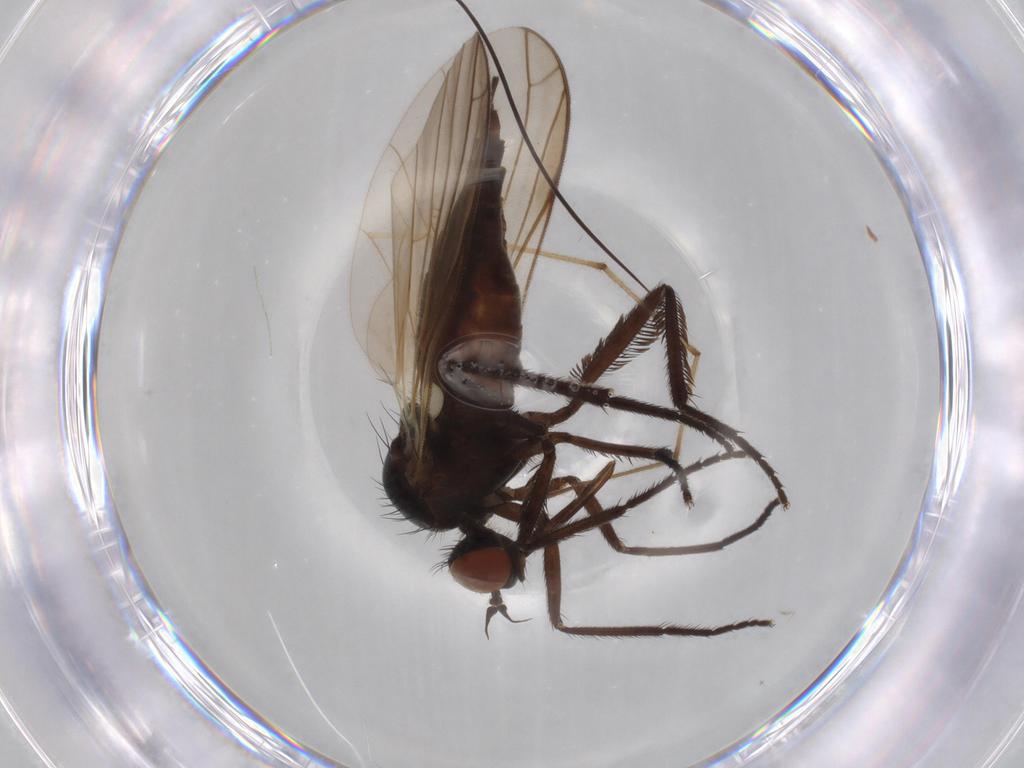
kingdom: Animalia
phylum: Arthropoda
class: Insecta
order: Diptera
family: Empididae
